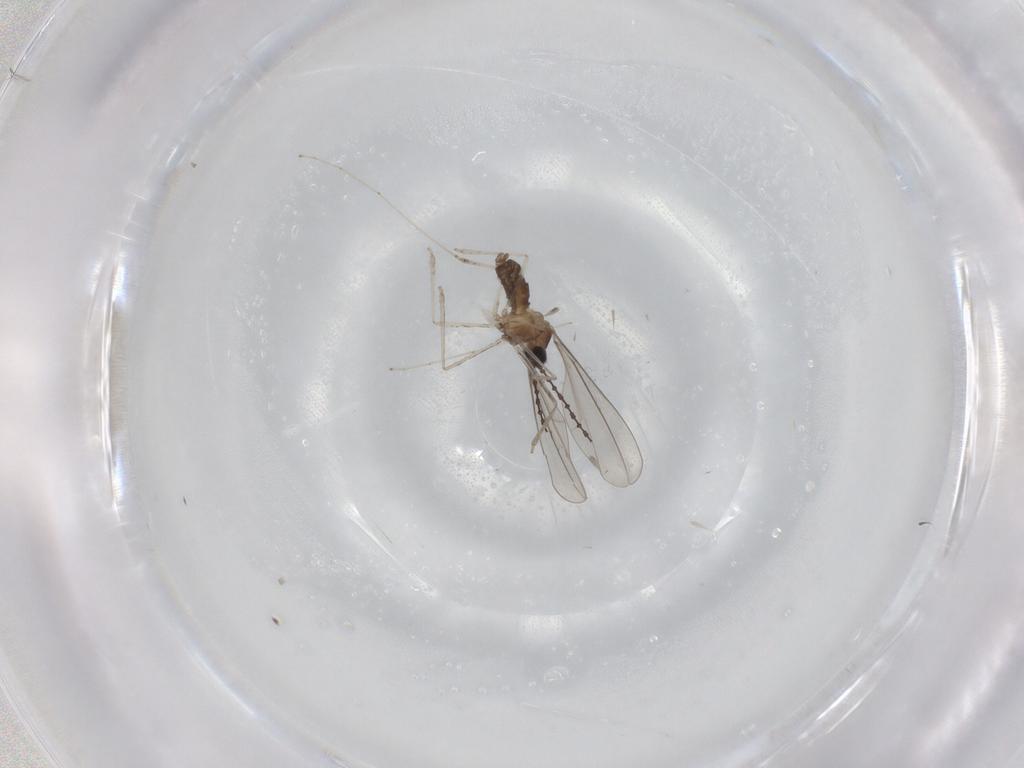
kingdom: Animalia
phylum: Arthropoda
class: Insecta
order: Diptera
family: Cecidomyiidae
